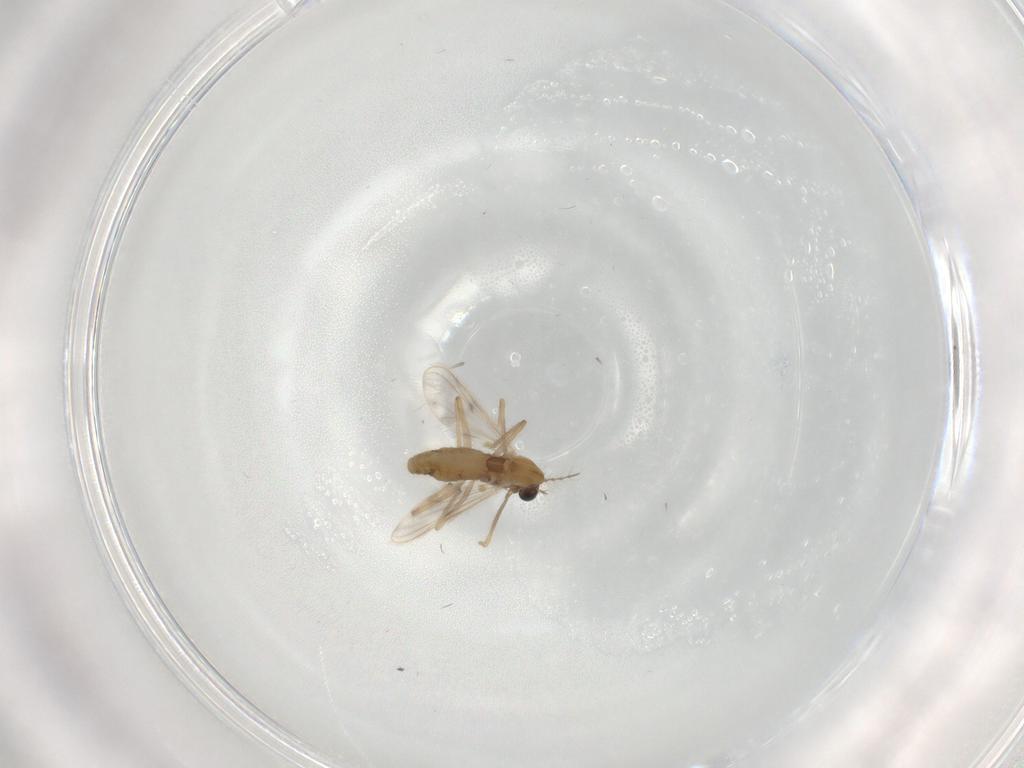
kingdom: Animalia
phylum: Arthropoda
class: Insecta
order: Diptera
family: Chironomidae
